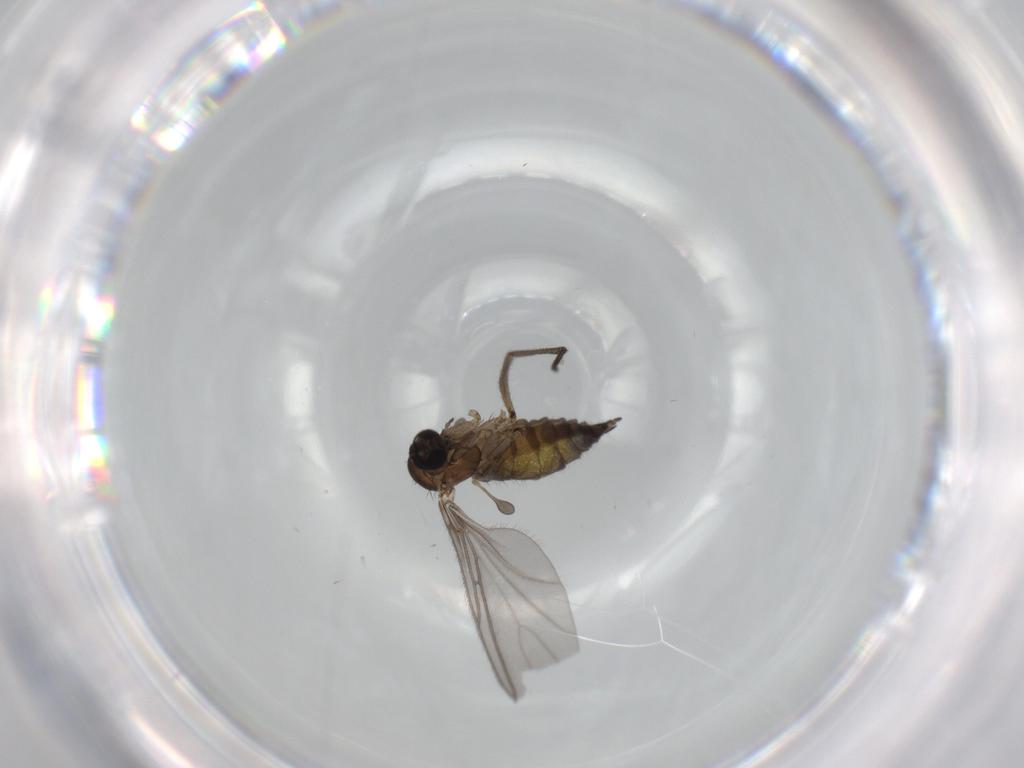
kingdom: Animalia
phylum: Arthropoda
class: Insecta
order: Diptera
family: Sciaridae
